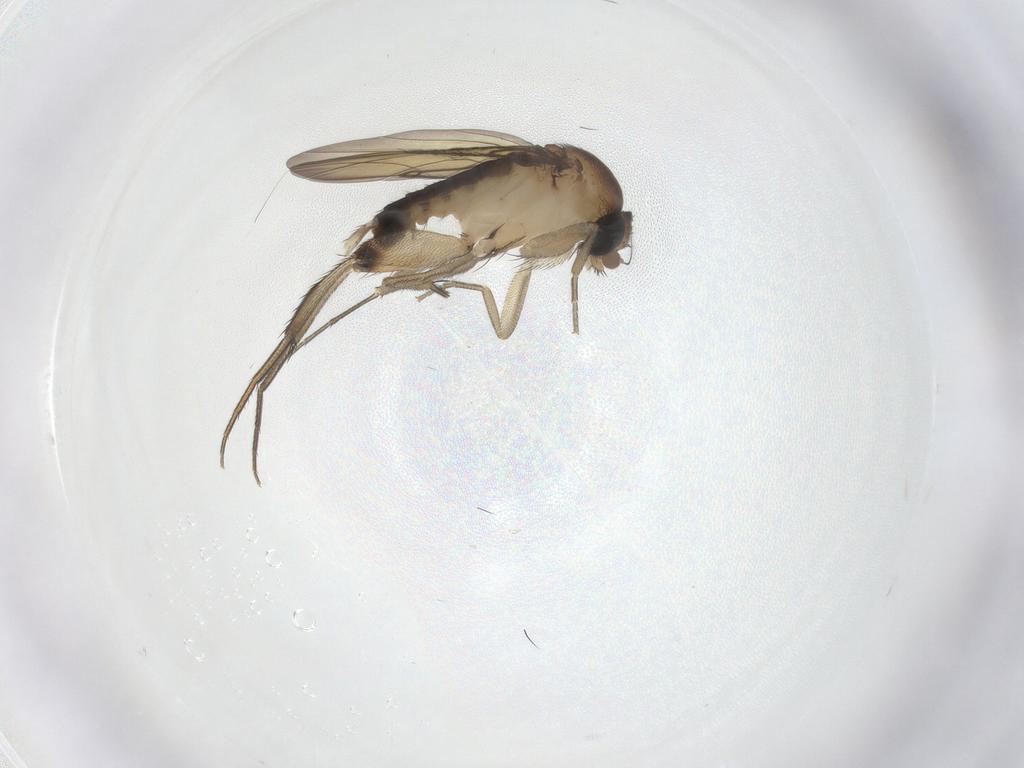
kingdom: Animalia
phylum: Arthropoda
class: Insecta
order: Diptera
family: Phoridae
